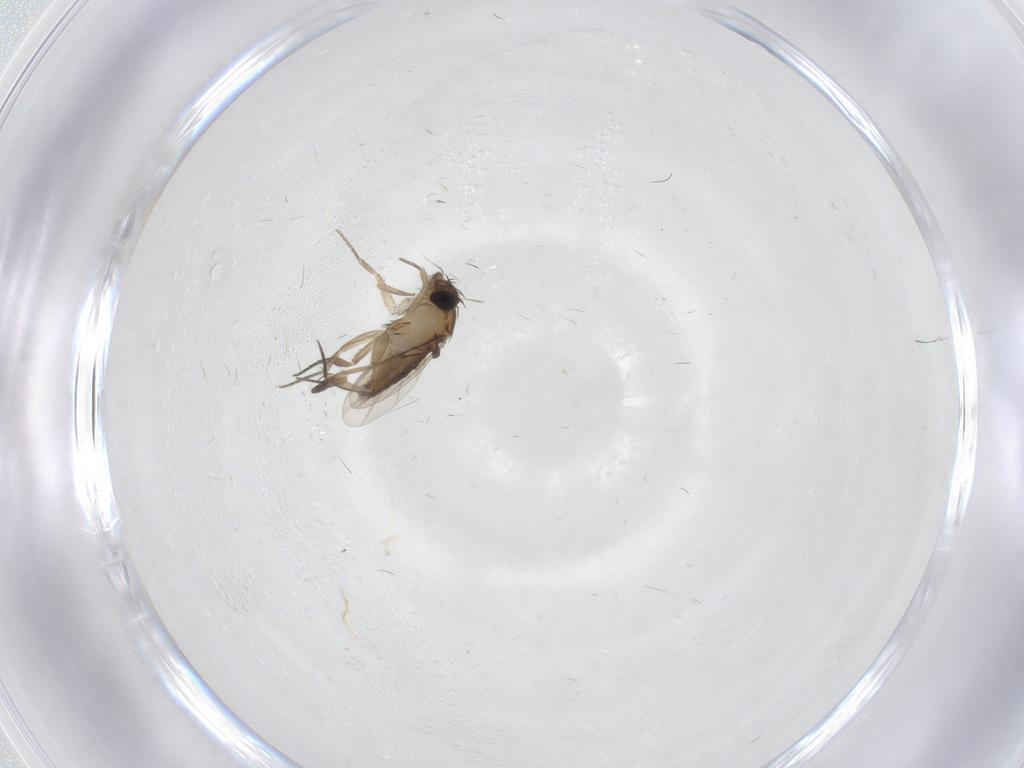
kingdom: Animalia
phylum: Arthropoda
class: Insecta
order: Diptera
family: Phoridae
